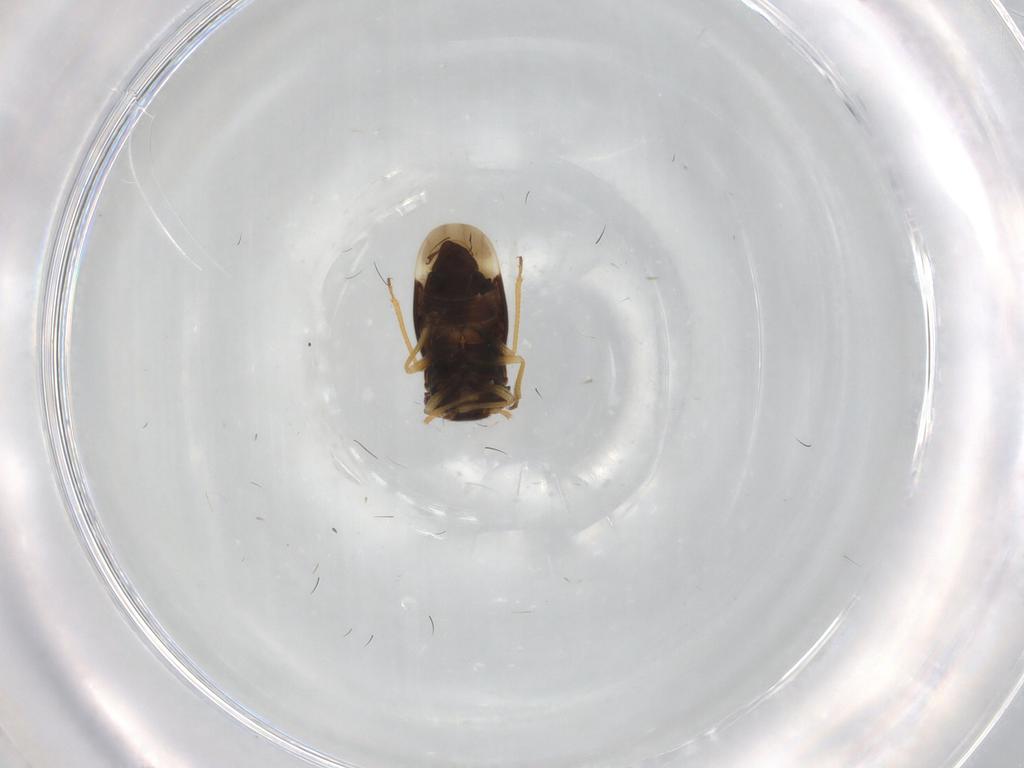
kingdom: Animalia
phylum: Arthropoda
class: Insecta
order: Hemiptera
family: Schizopteridae
